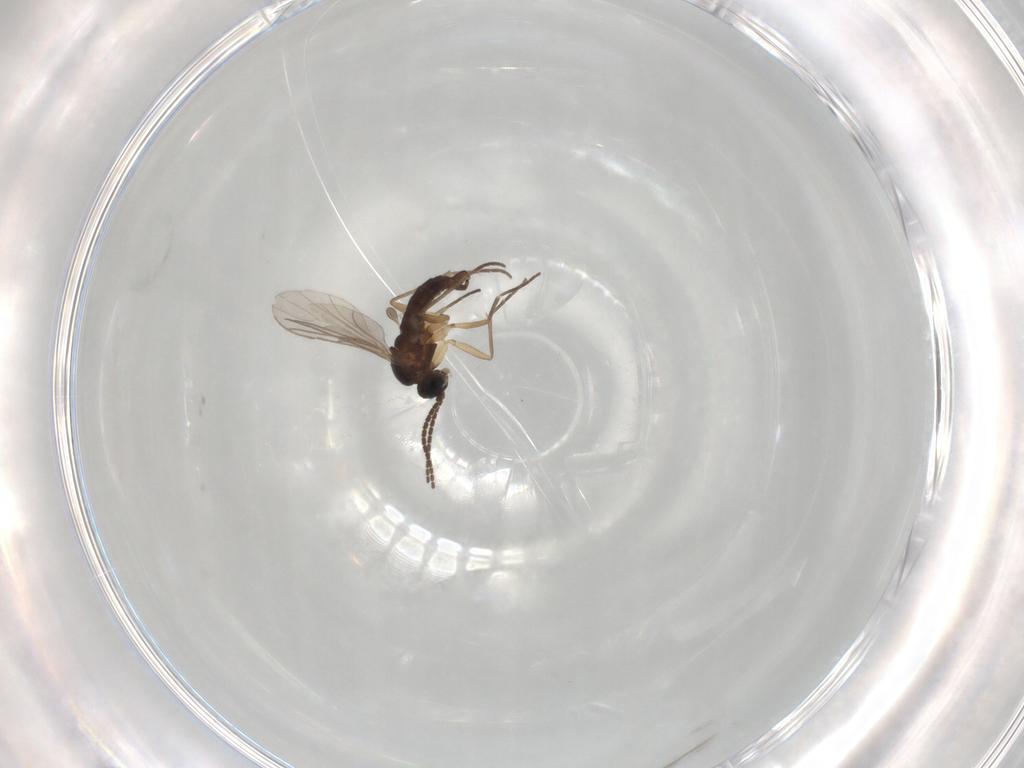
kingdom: Animalia
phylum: Arthropoda
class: Insecta
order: Diptera
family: Sciaridae
